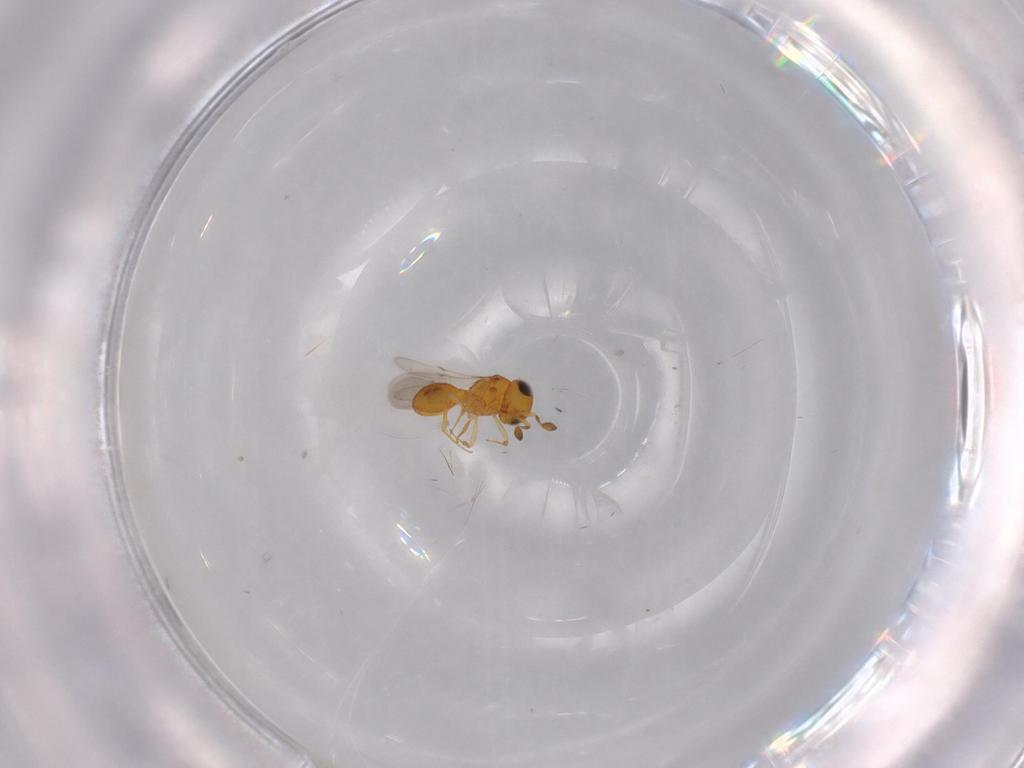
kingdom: Animalia
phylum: Arthropoda
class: Insecta
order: Hymenoptera
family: Scelionidae
